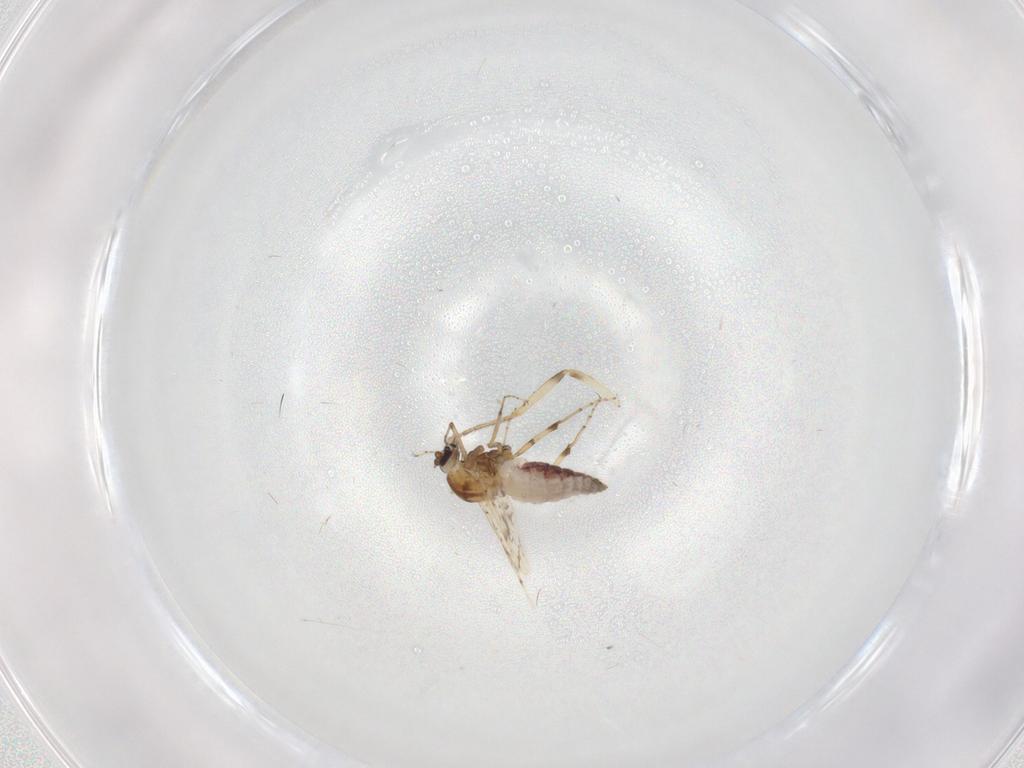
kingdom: Animalia
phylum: Arthropoda
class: Insecta
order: Diptera
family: Ceratopogonidae
